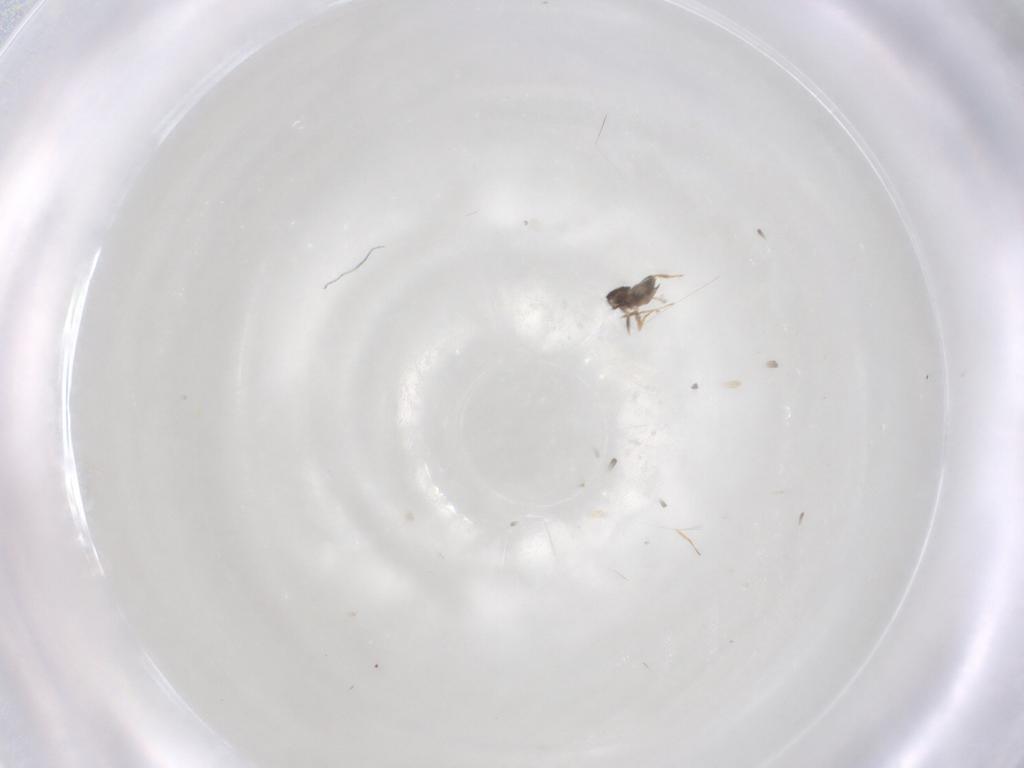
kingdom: Animalia
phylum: Arthropoda
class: Insecta
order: Hymenoptera
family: Mymaridae
